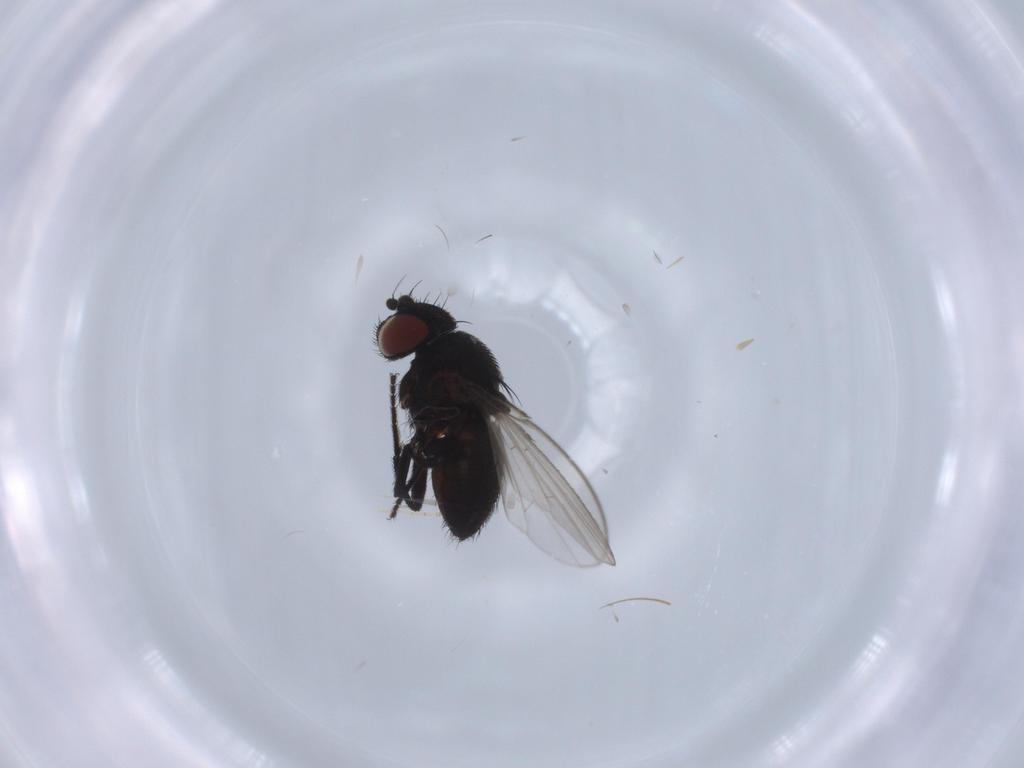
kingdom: Animalia
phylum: Arthropoda
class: Insecta
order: Diptera
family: Milichiidae
